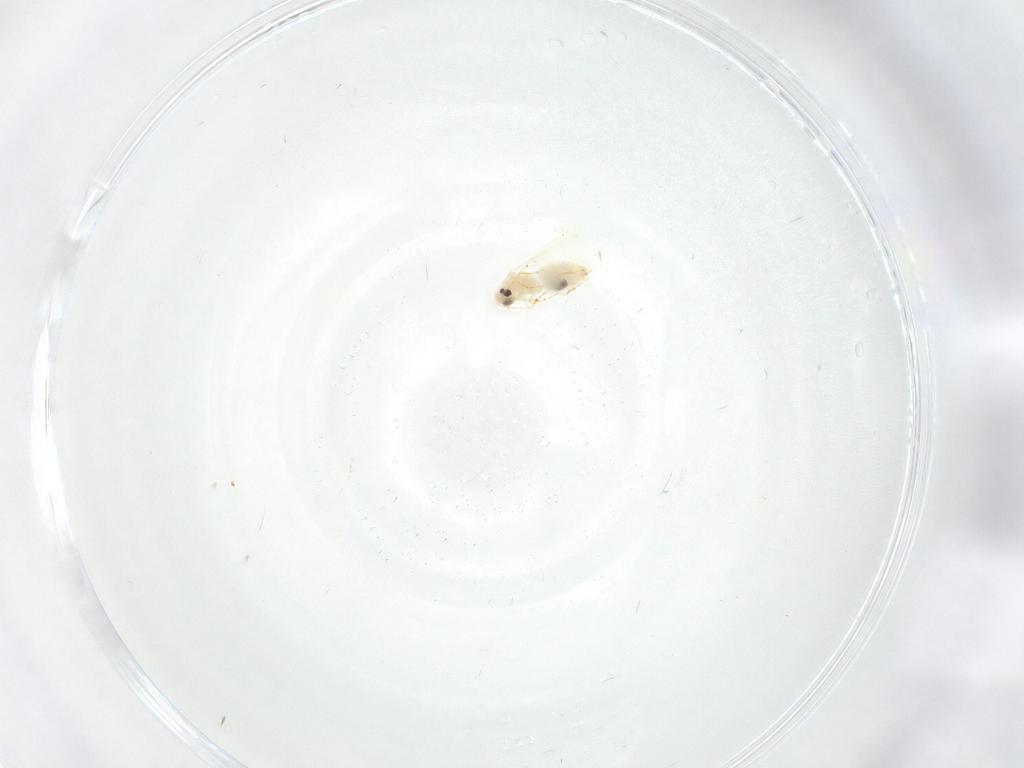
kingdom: Animalia
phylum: Arthropoda
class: Insecta
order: Hemiptera
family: Aleyrodidae
